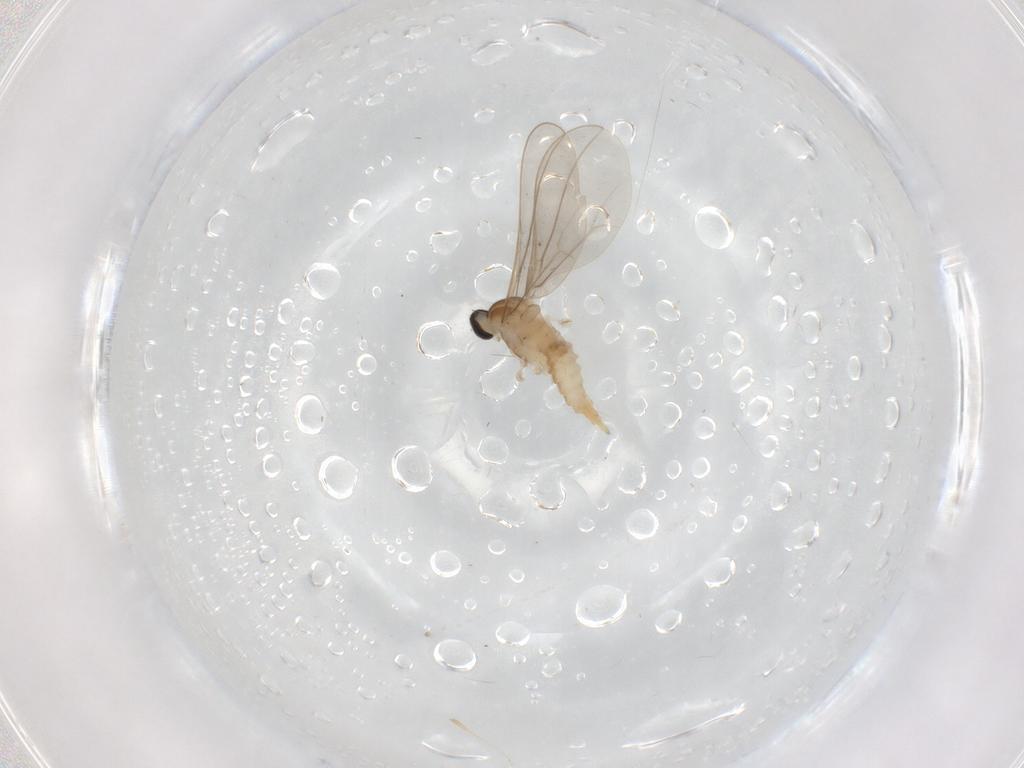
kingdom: Animalia
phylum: Arthropoda
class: Insecta
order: Diptera
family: Cecidomyiidae
